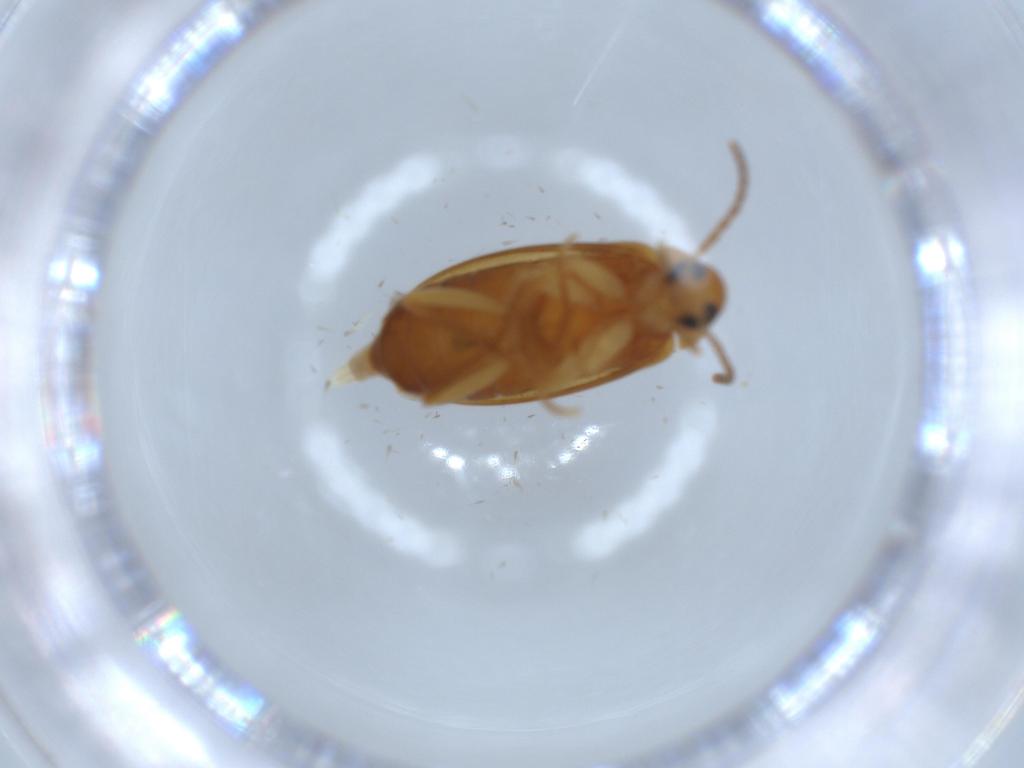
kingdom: Animalia
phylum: Arthropoda
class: Insecta
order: Coleoptera
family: Scraptiidae
